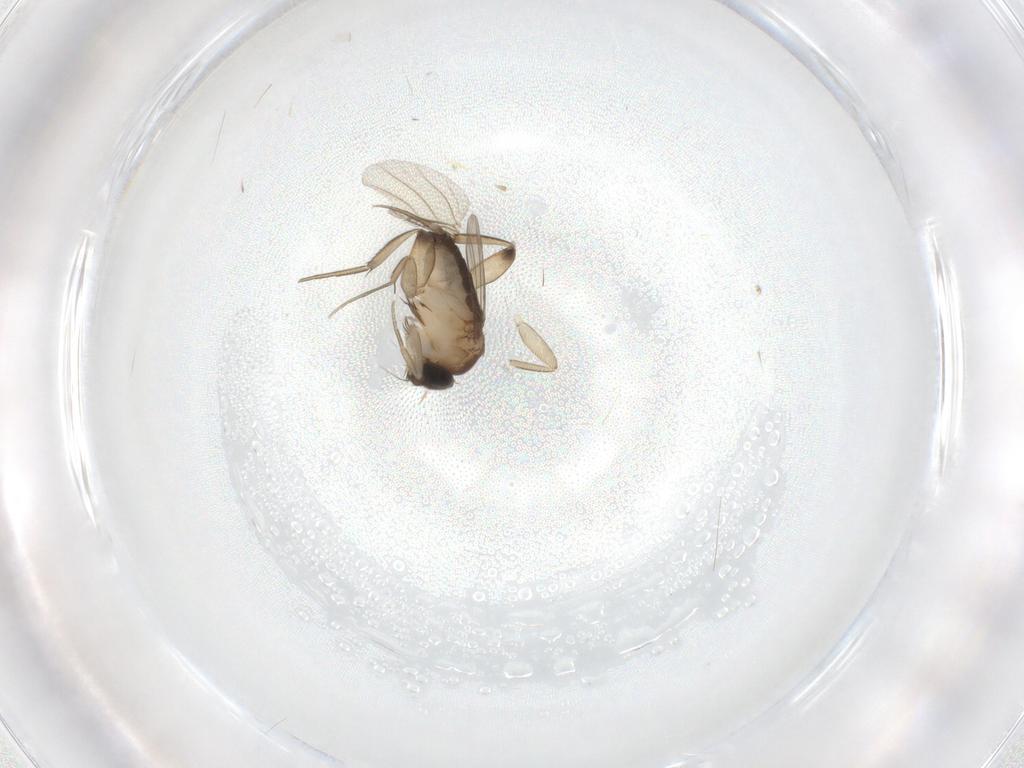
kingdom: Animalia
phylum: Arthropoda
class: Insecta
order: Diptera
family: Phoridae
